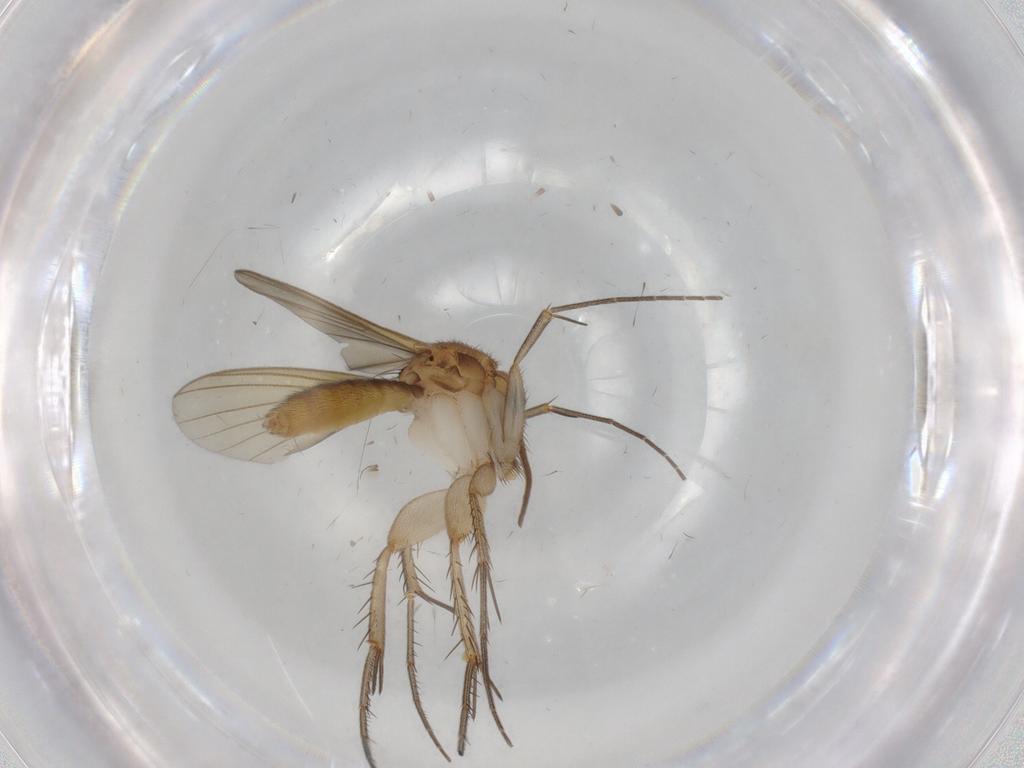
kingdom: Animalia
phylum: Arthropoda
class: Insecta
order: Diptera
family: Mycetophilidae
